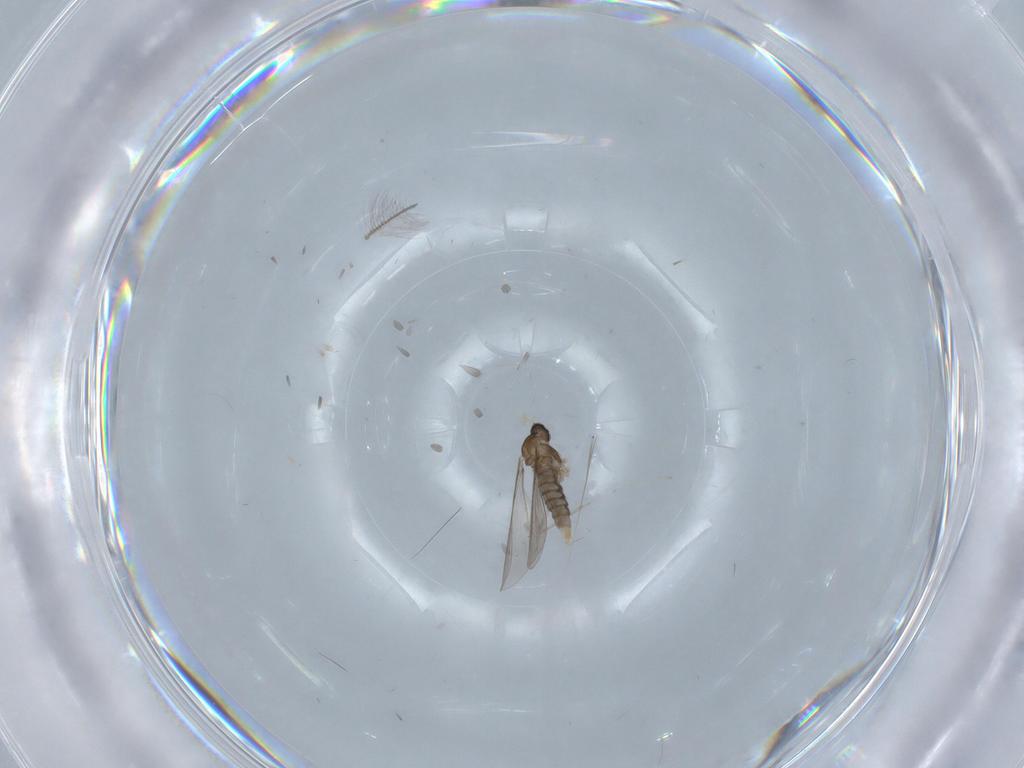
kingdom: Animalia
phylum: Arthropoda
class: Insecta
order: Diptera
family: Cecidomyiidae
